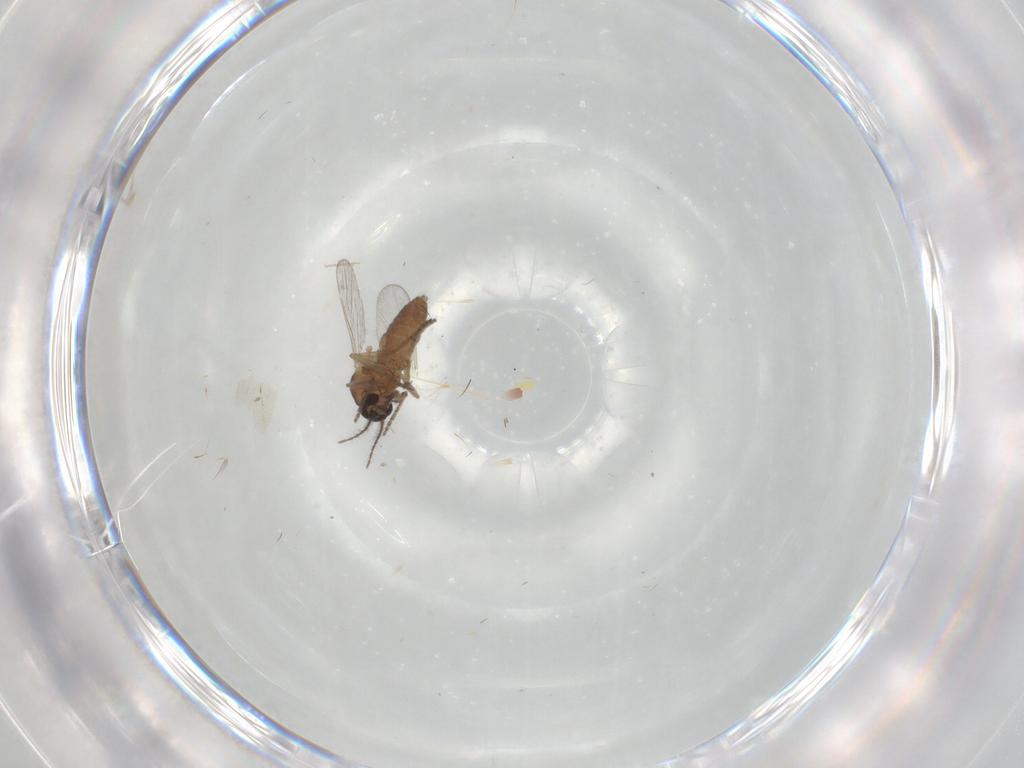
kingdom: Animalia
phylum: Arthropoda
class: Insecta
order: Diptera
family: Chironomidae
